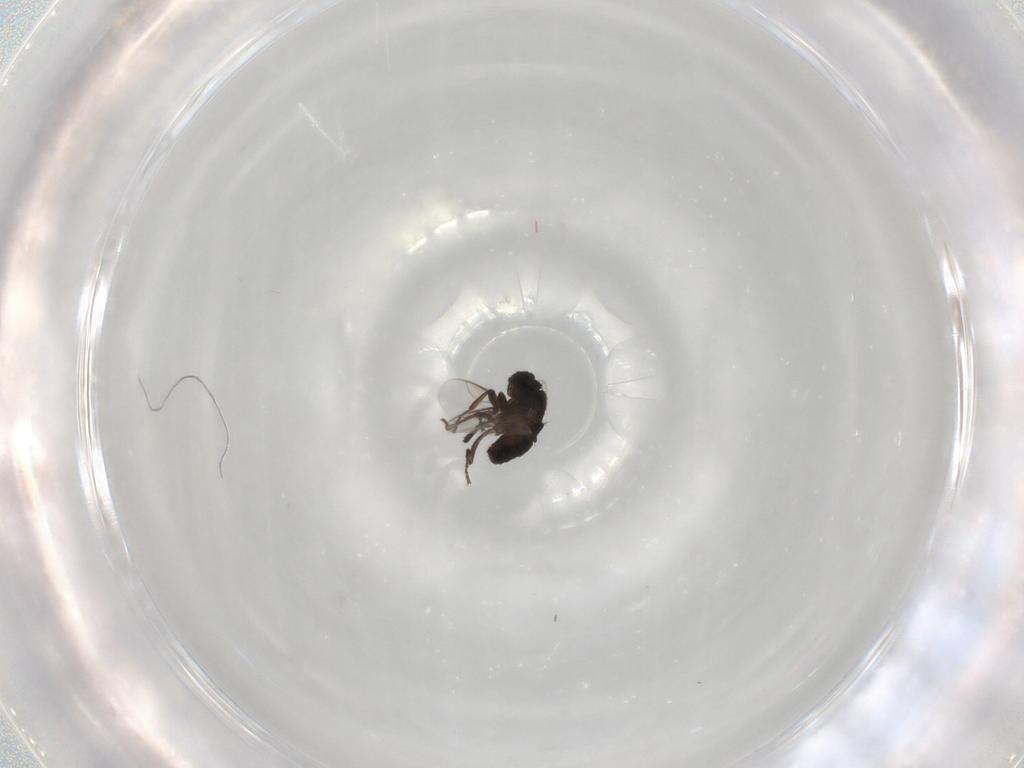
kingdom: Animalia
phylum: Arthropoda
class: Insecta
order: Diptera
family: Sphaeroceridae
